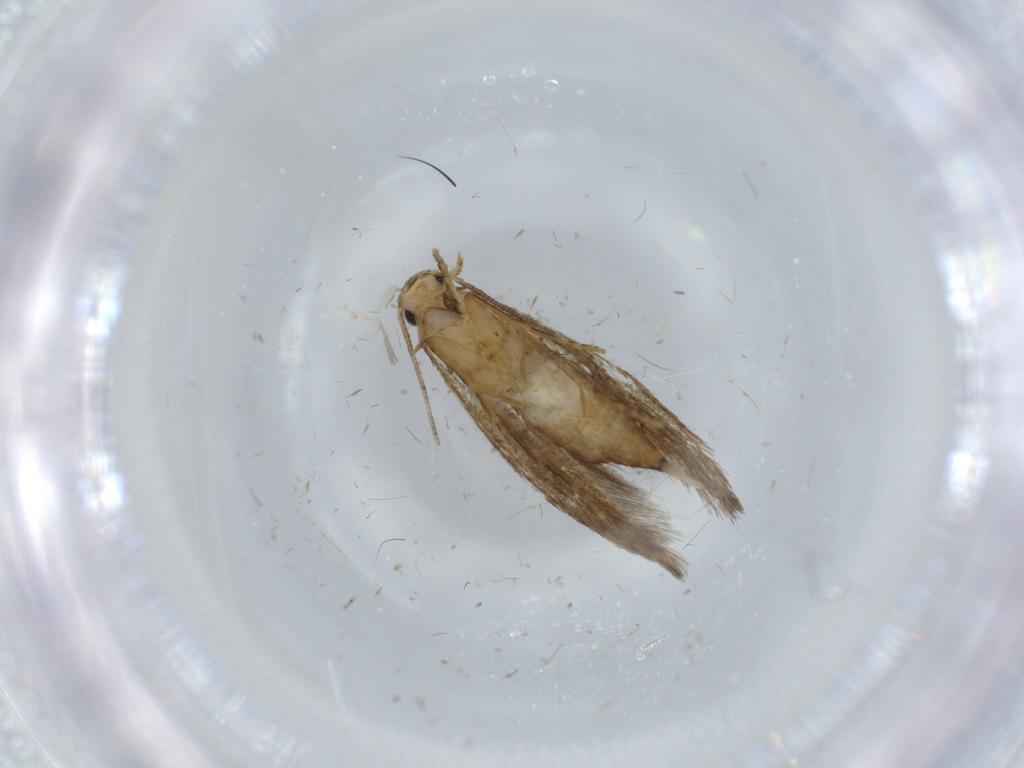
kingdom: Animalia
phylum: Arthropoda
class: Insecta
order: Lepidoptera
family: Tineidae
